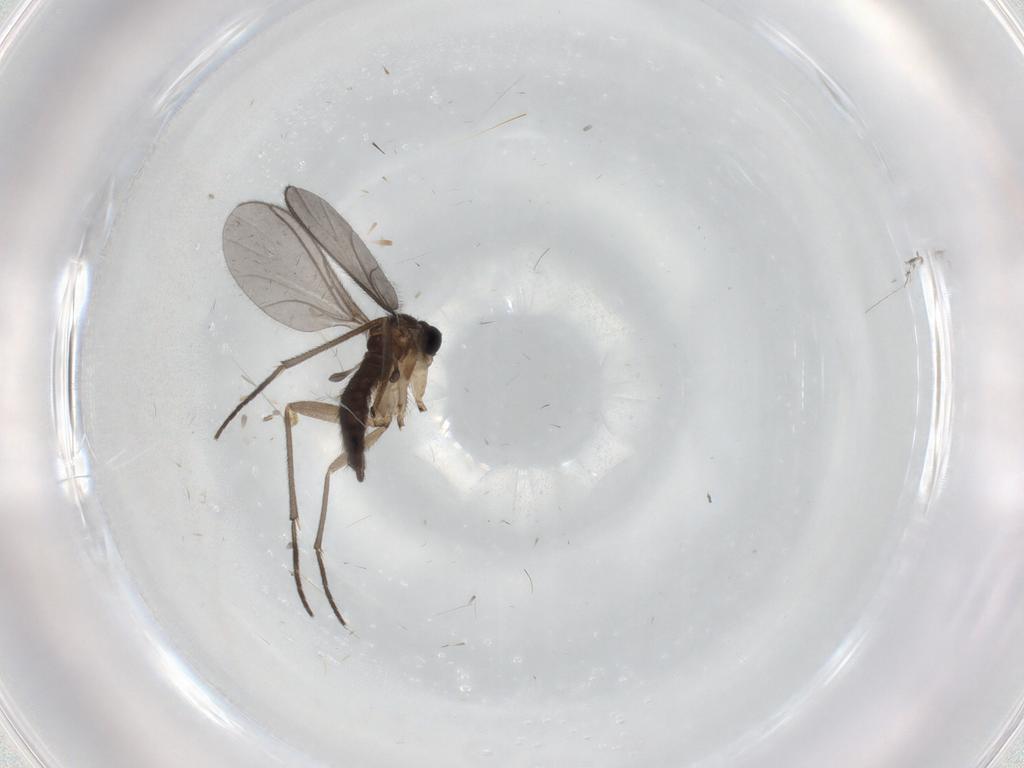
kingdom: Animalia
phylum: Arthropoda
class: Insecta
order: Diptera
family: Sciaridae
